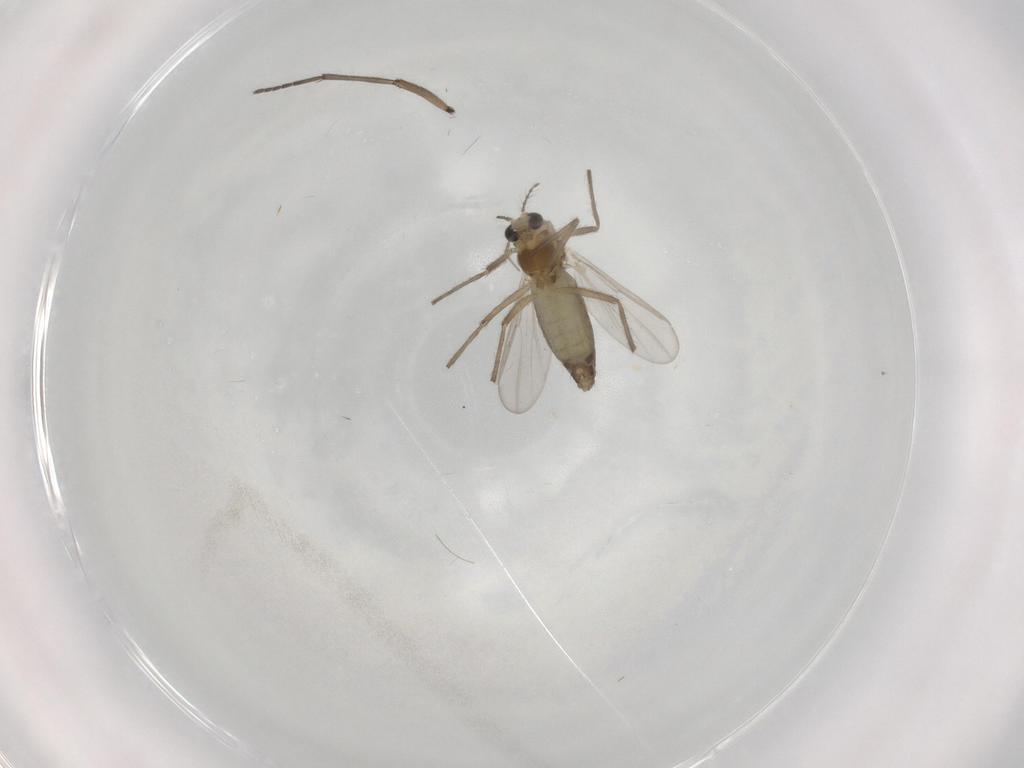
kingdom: Animalia
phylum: Arthropoda
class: Insecta
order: Diptera
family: Chironomidae
